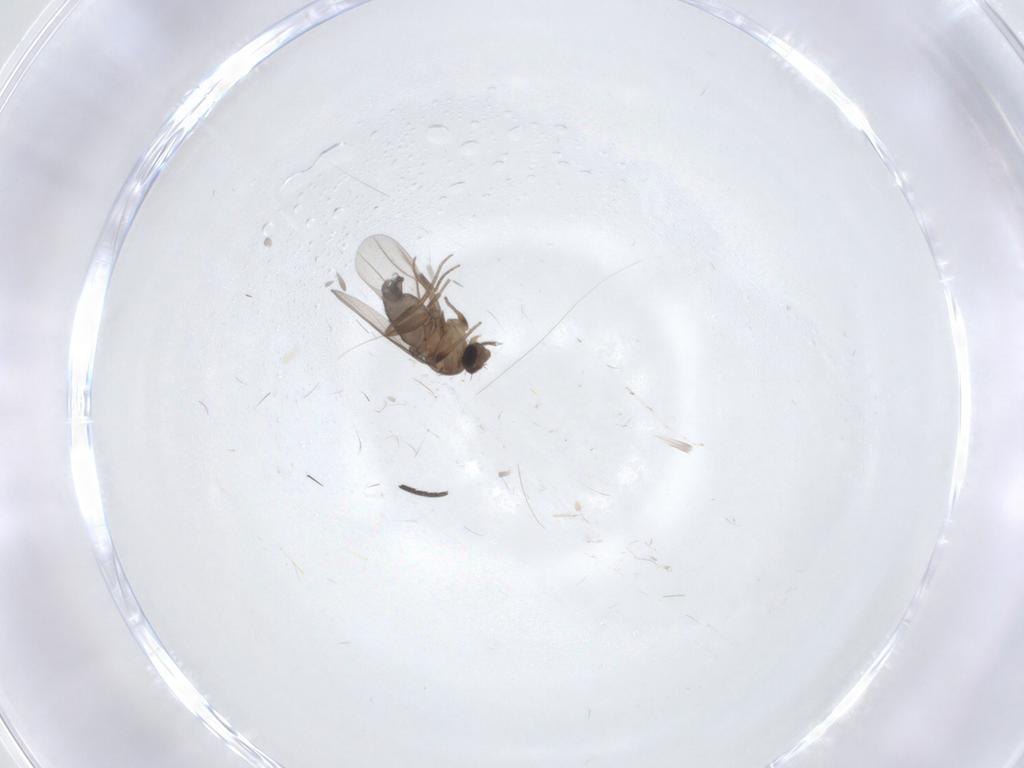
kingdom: Animalia
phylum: Arthropoda
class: Insecta
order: Diptera
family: Phoridae
